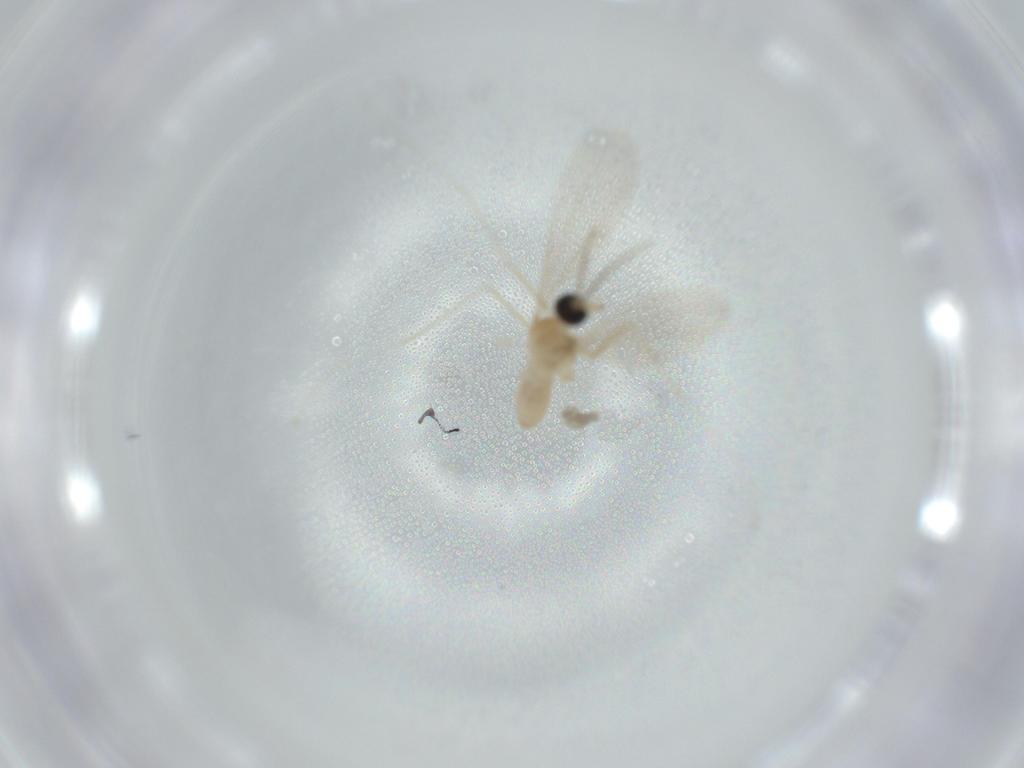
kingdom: Animalia
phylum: Arthropoda
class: Insecta
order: Diptera
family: Cecidomyiidae
